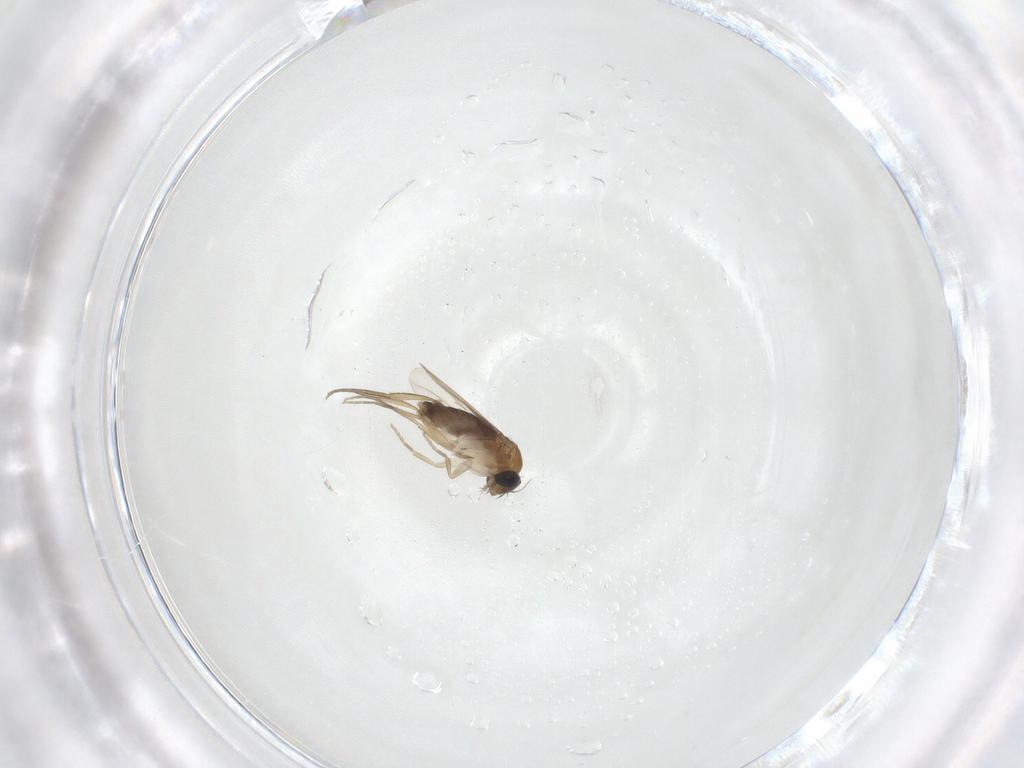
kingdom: Animalia
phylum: Arthropoda
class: Insecta
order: Diptera
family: Phoridae
